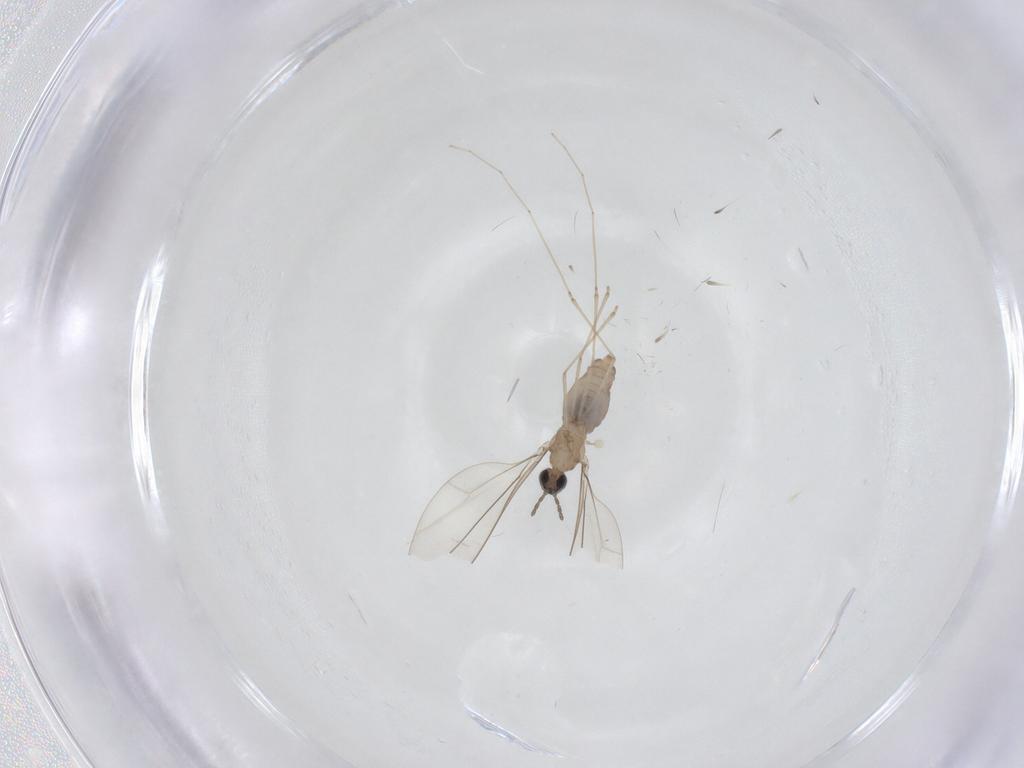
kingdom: Animalia
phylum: Arthropoda
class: Insecta
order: Diptera
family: Cecidomyiidae
